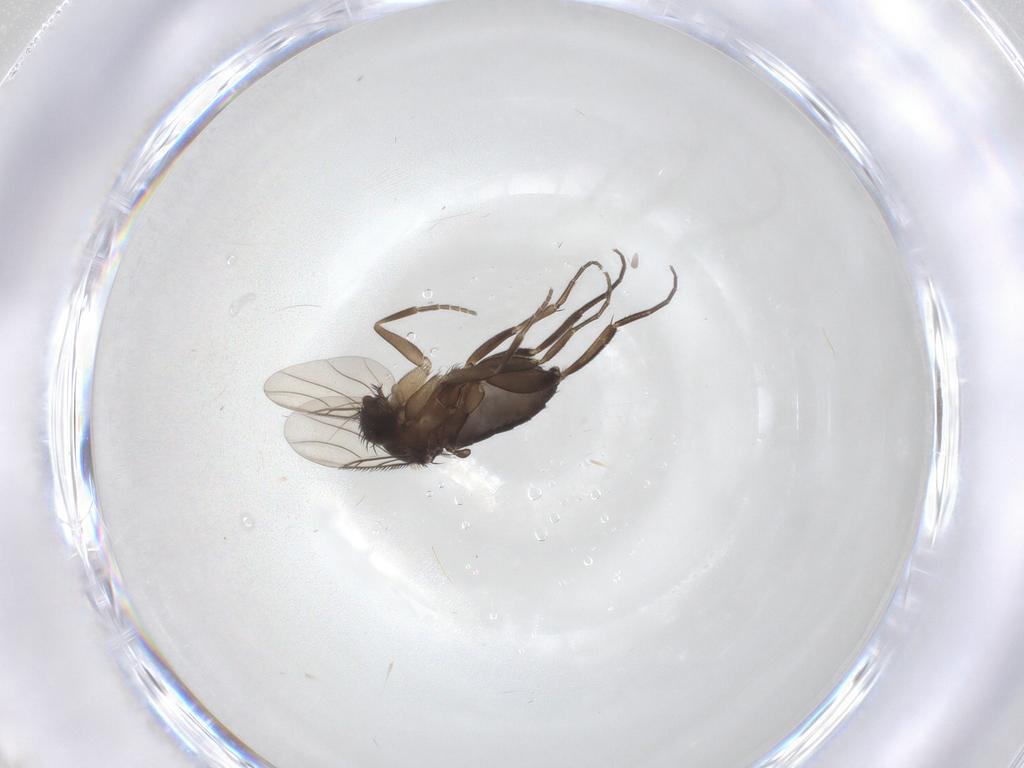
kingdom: Animalia
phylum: Arthropoda
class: Insecta
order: Diptera
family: Phoridae
